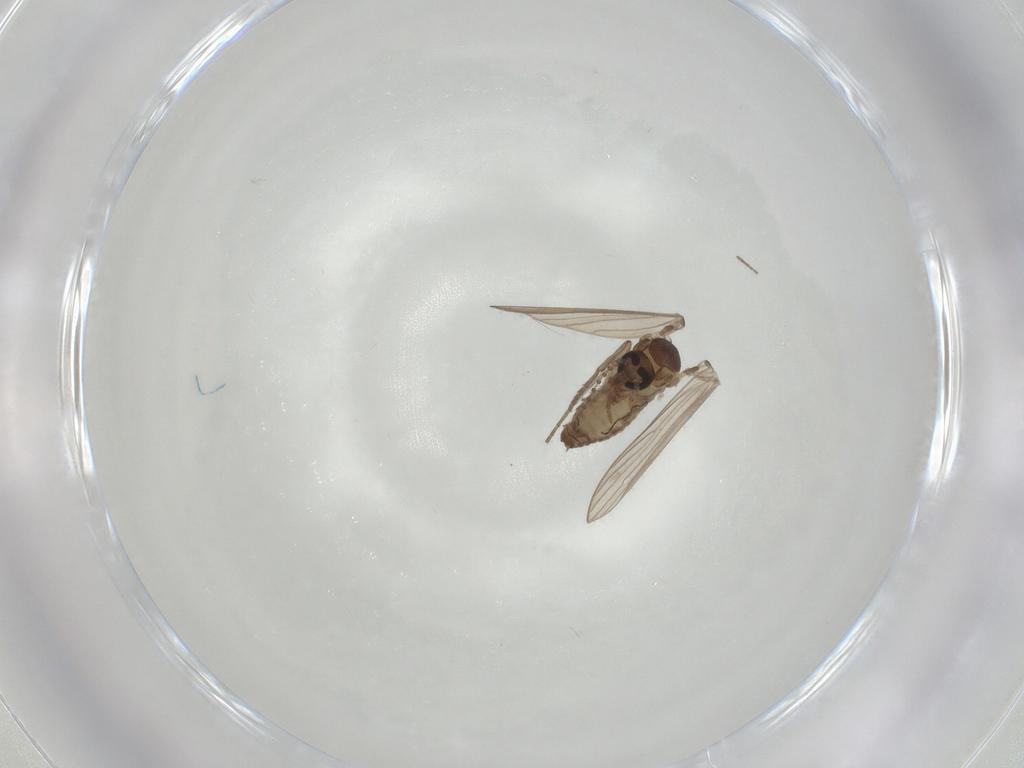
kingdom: Animalia
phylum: Arthropoda
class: Insecta
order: Diptera
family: Psychodidae
